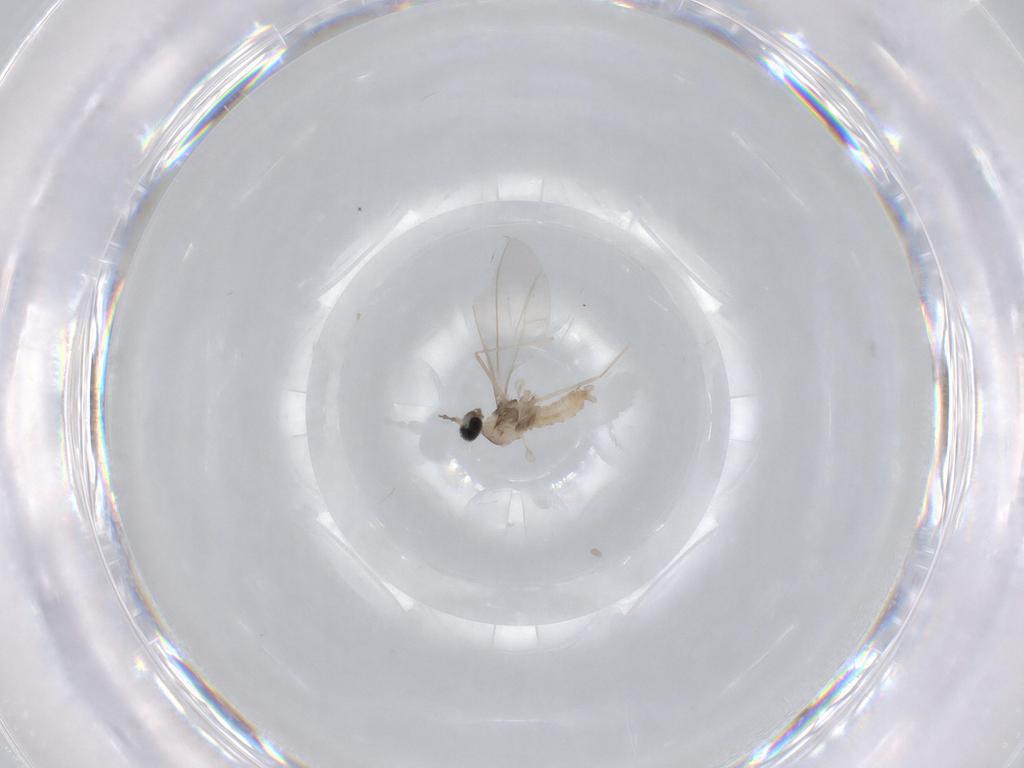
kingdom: Animalia
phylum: Arthropoda
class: Insecta
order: Diptera
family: Cecidomyiidae
